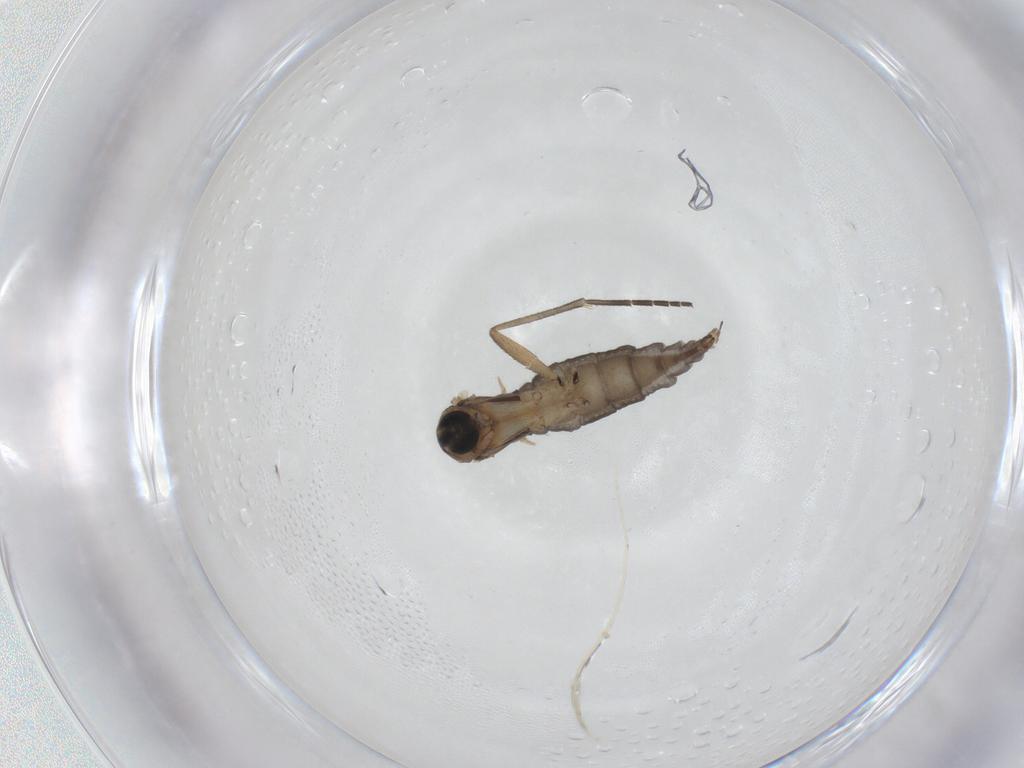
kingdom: Animalia
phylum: Arthropoda
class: Insecta
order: Diptera
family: Sciaridae
